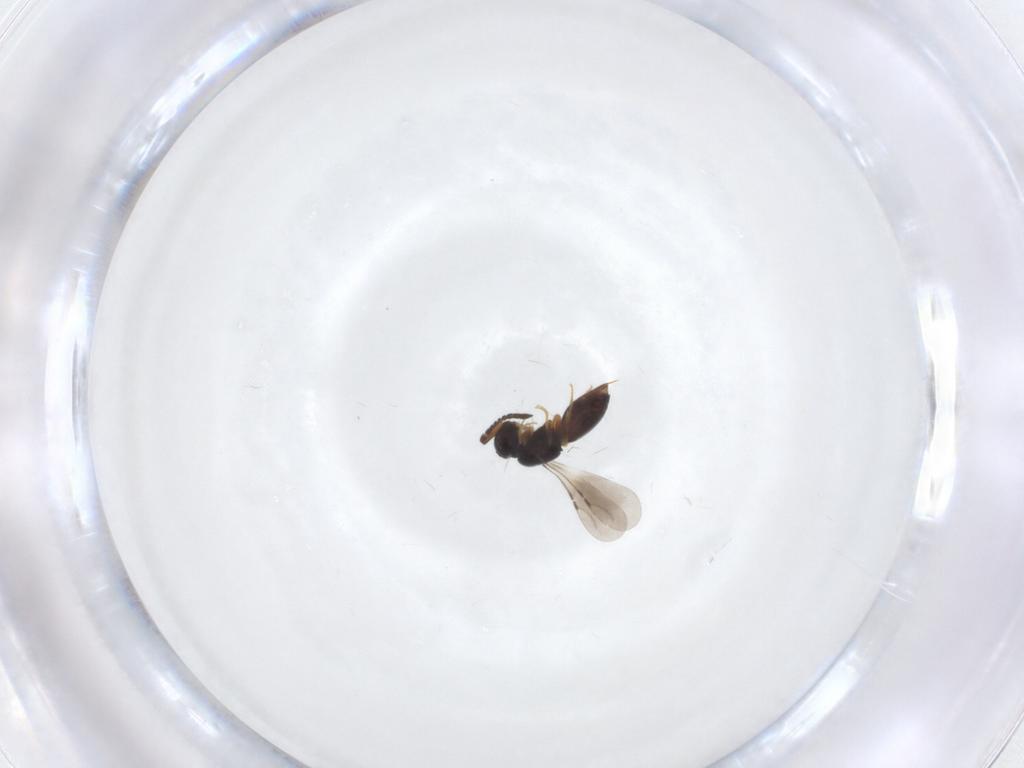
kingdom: Animalia
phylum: Arthropoda
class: Insecta
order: Hymenoptera
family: Ceraphronidae
